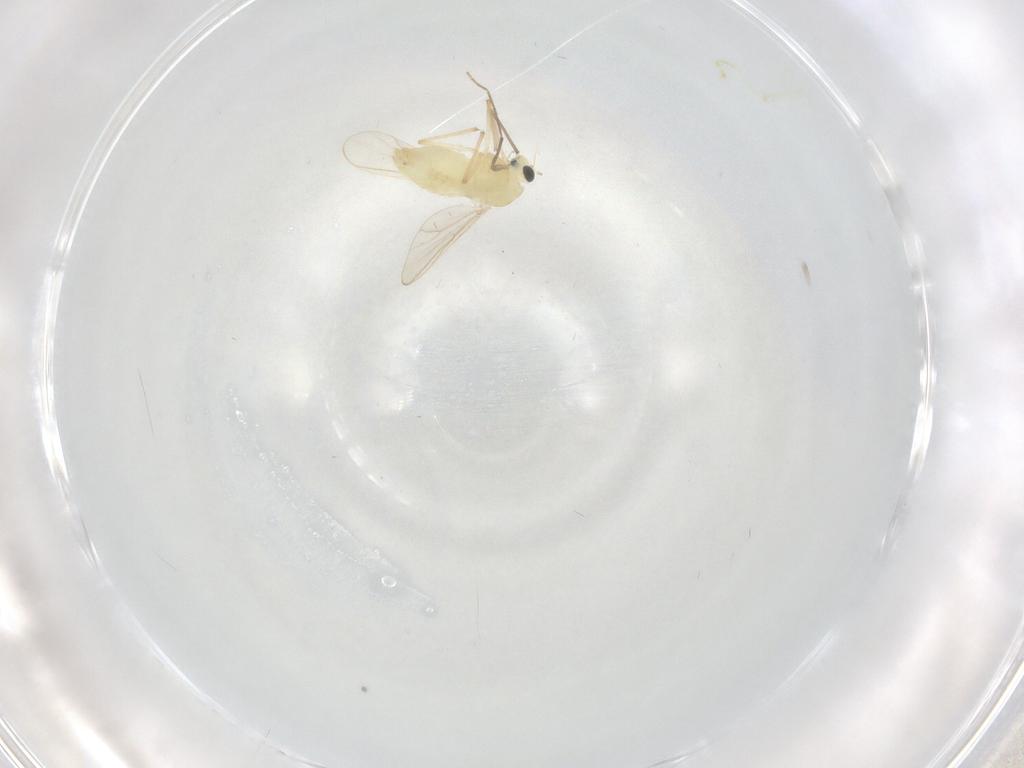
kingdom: Animalia
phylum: Arthropoda
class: Insecta
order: Diptera
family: Chironomidae
